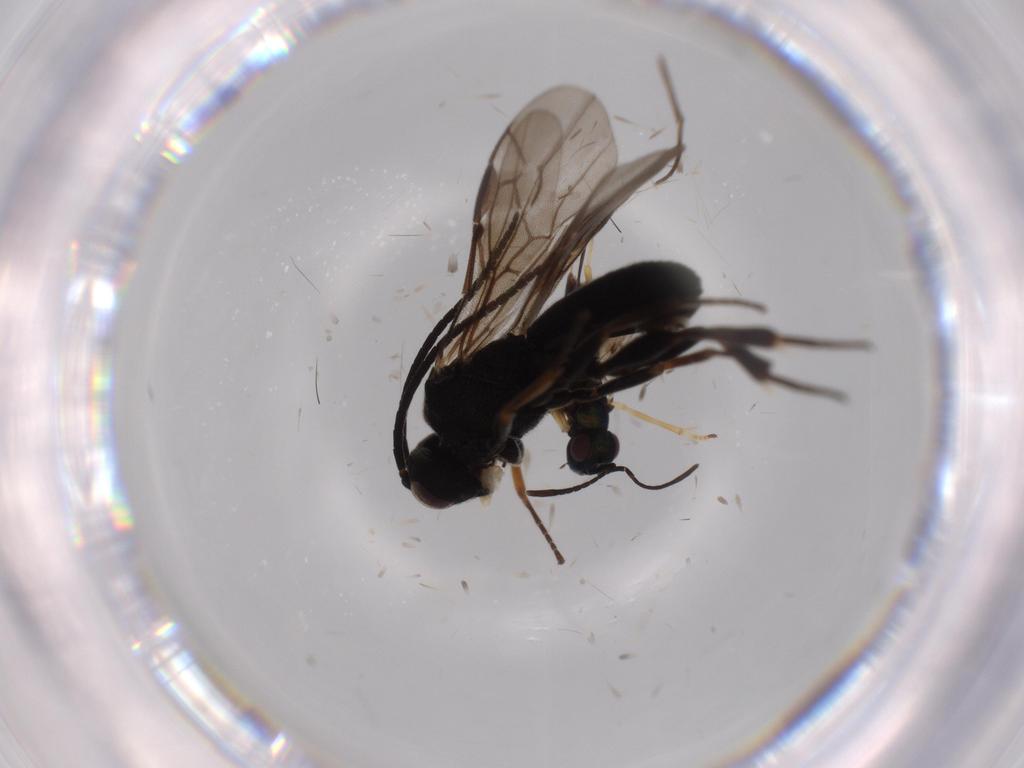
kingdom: Animalia
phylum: Arthropoda
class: Insecta
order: Hymenoptera
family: Braconidae
